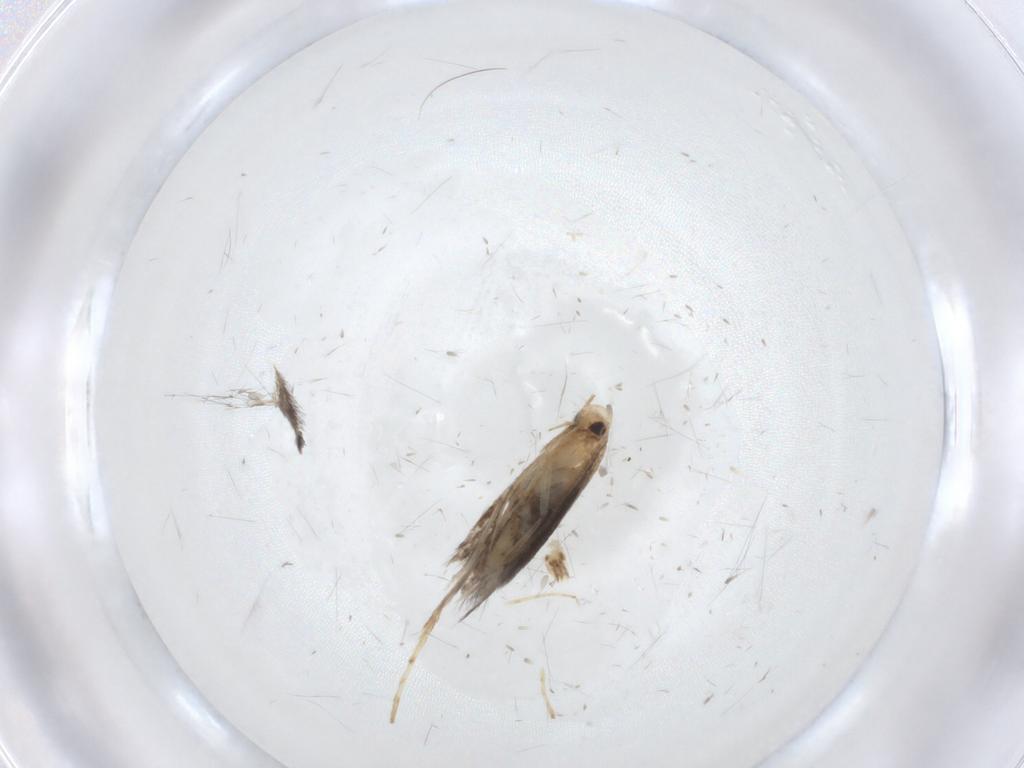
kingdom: Animalia
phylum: Arthropoda
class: Insecta
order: Lepidoptera
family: Gracillariidae
